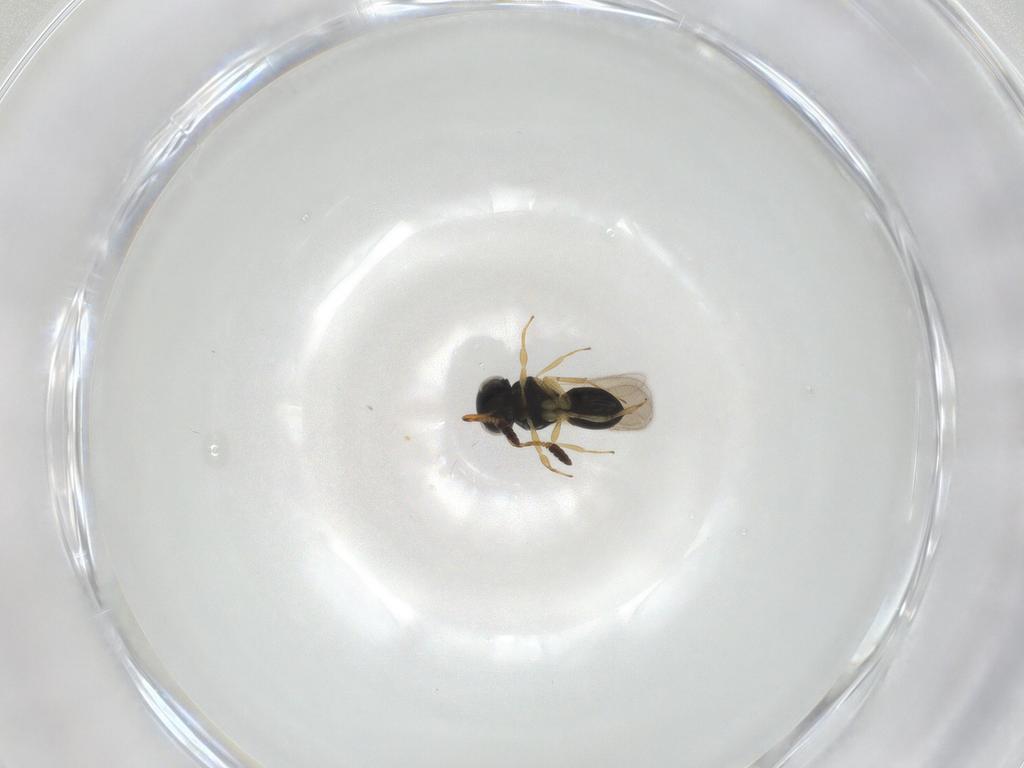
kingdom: Animalia
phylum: Arthropoda
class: Insecta
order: Hymenoptera
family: Scelionidae
